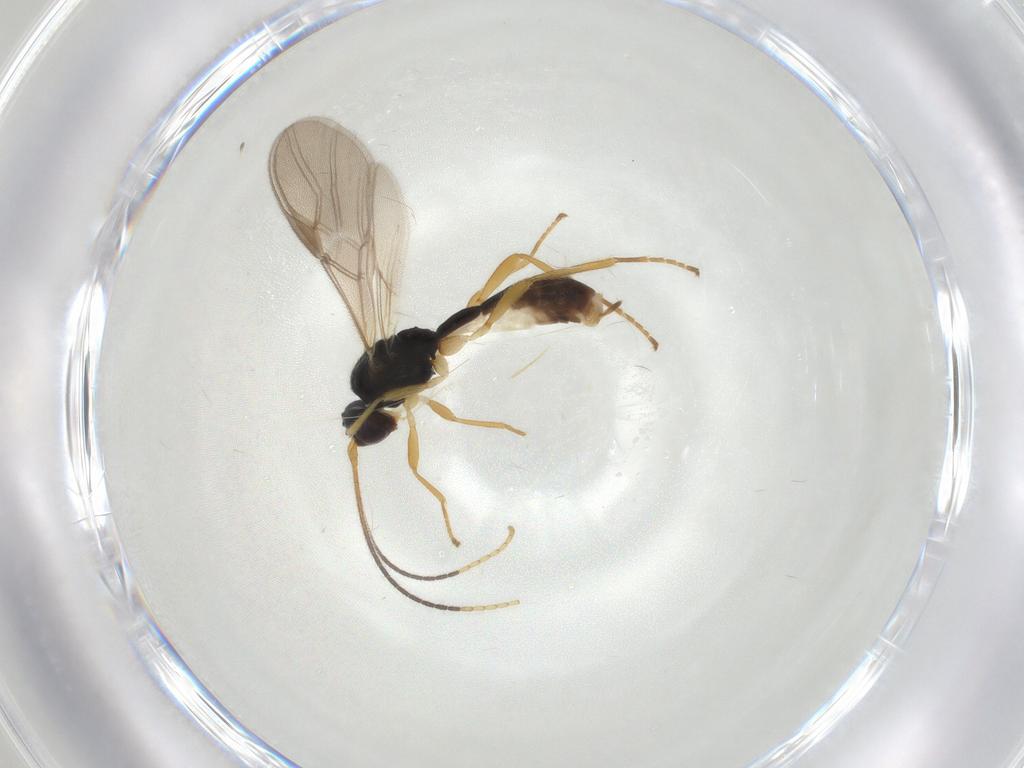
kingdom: Animalia
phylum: Arthropoda
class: Insecta
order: Hymenoptera
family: Braconidae
